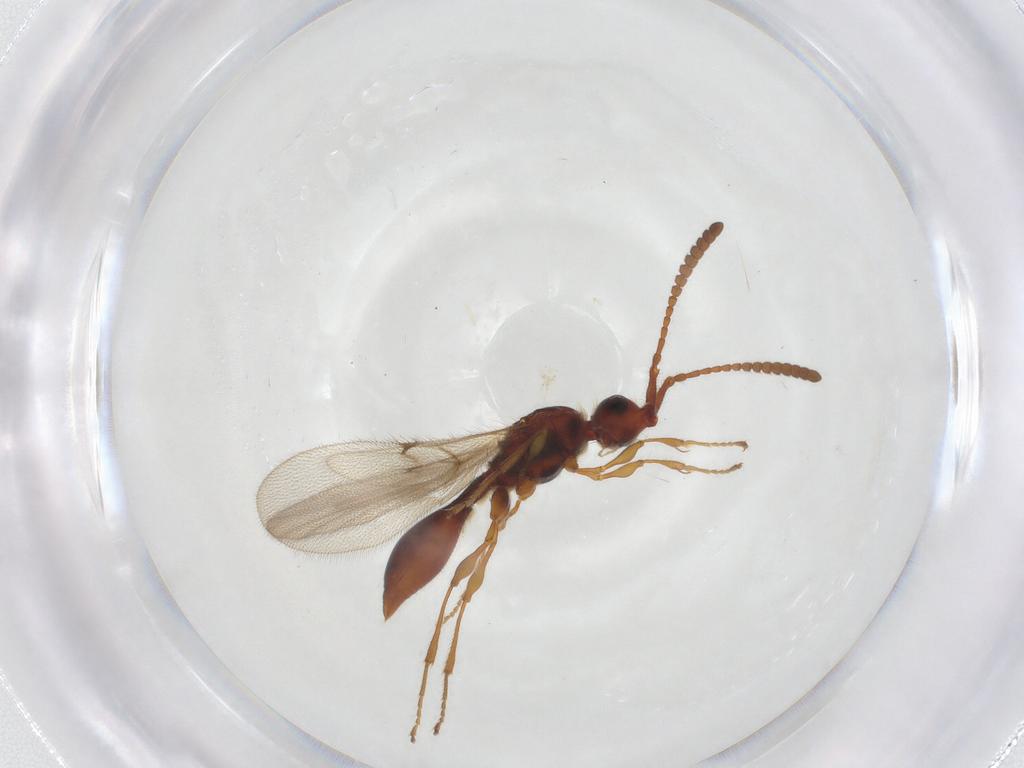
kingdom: Animalia
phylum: Arthropoda
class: Insecta
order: Hymenoptera
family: Diapriidae
